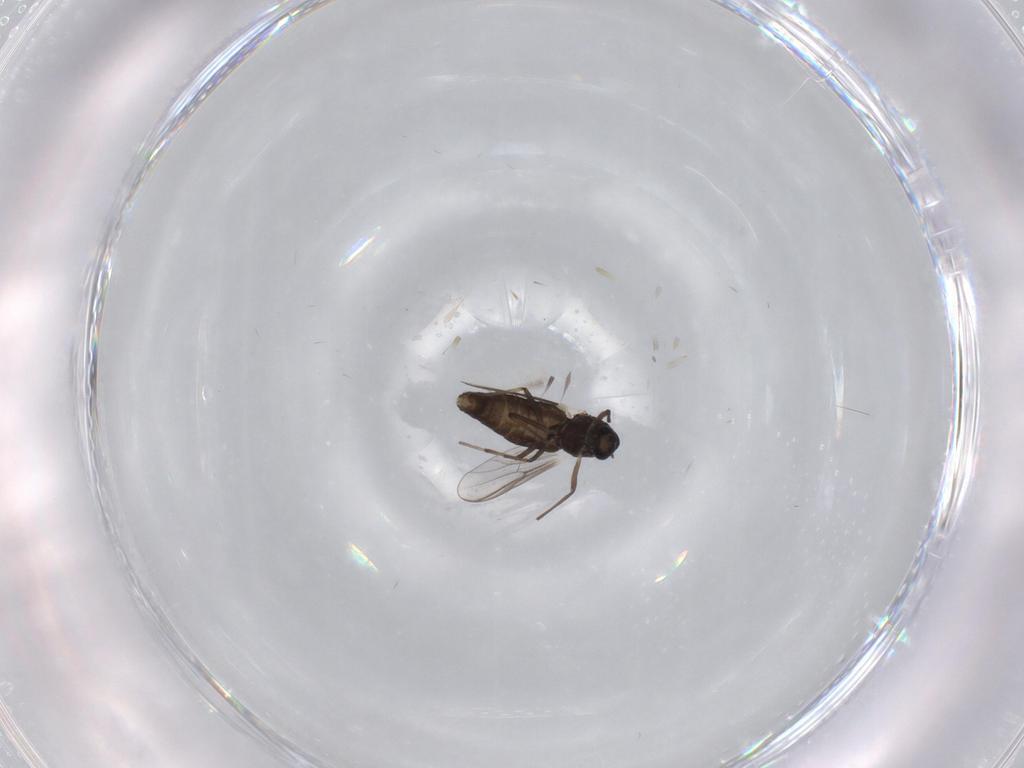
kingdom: Animalia
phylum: Arthropoda
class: Insecta
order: Diptera
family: Chironomidae
